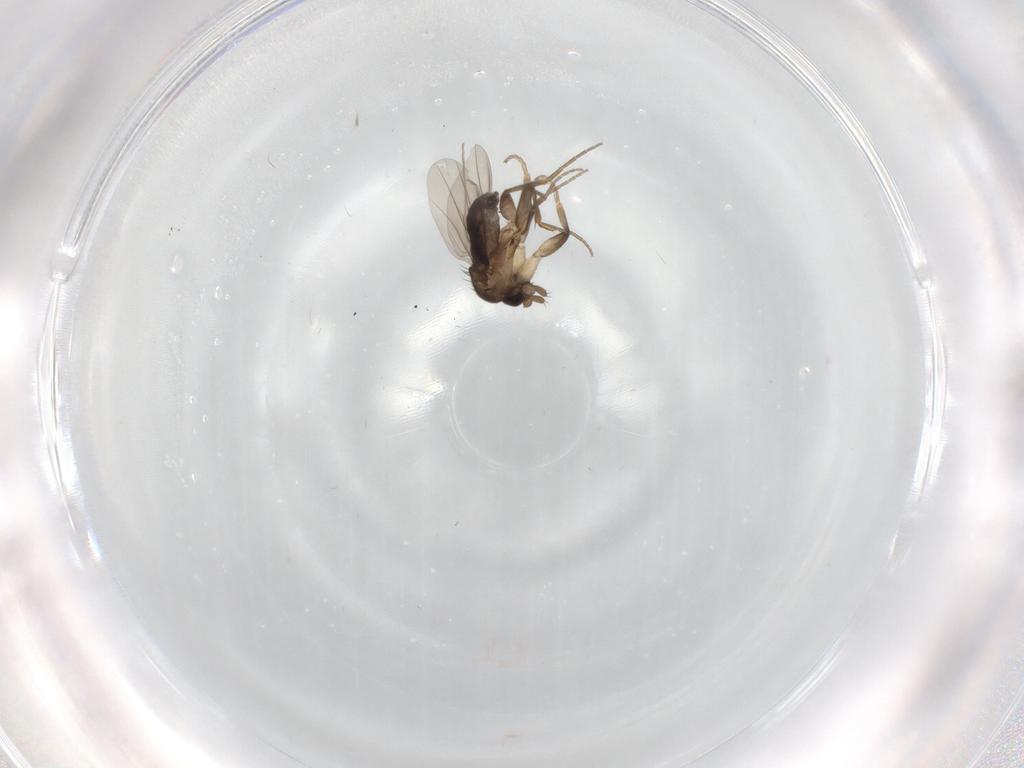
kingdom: Animalia
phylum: Arthropoda
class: Insecta
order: Diptera
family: Phoridae
